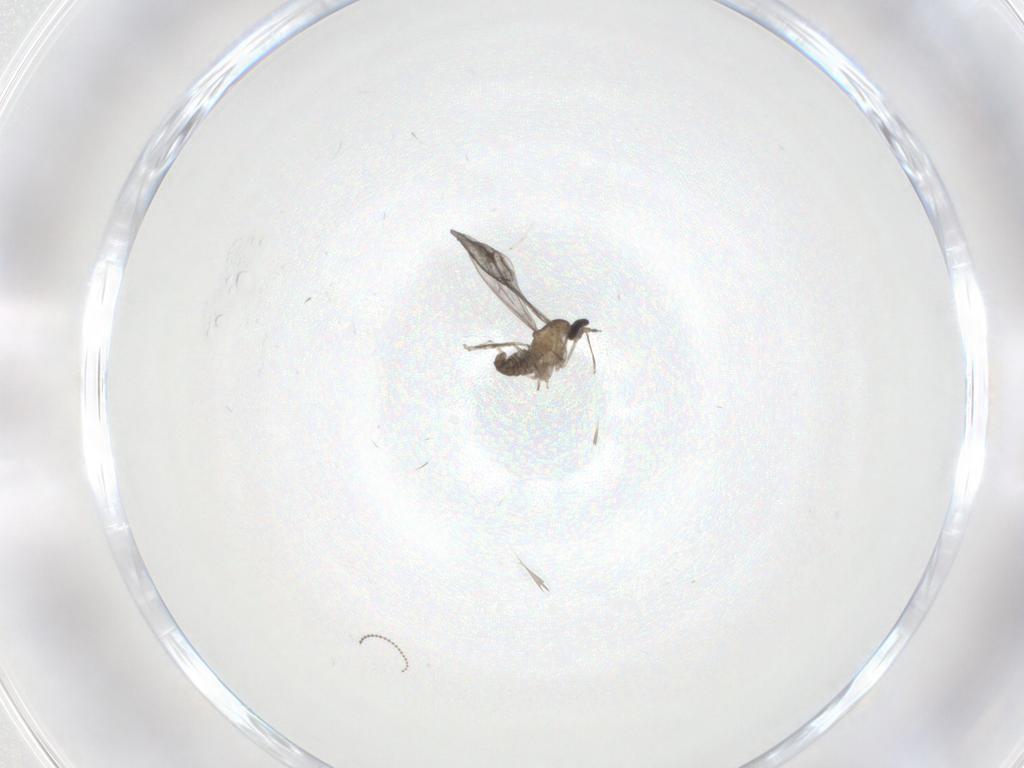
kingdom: Animalia
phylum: Arthropoda
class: Insecta
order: Diptera
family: Cecidomyiidae
